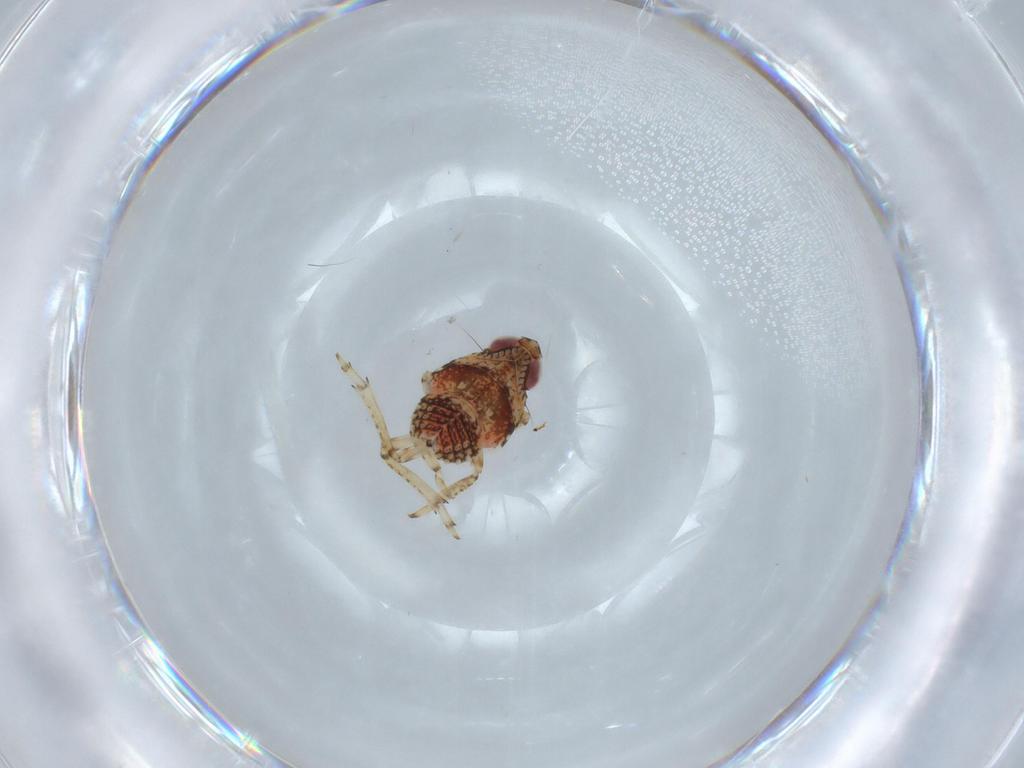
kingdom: Animalia
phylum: Arthropoda
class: Insecta
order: Hemiptera
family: Issidae
